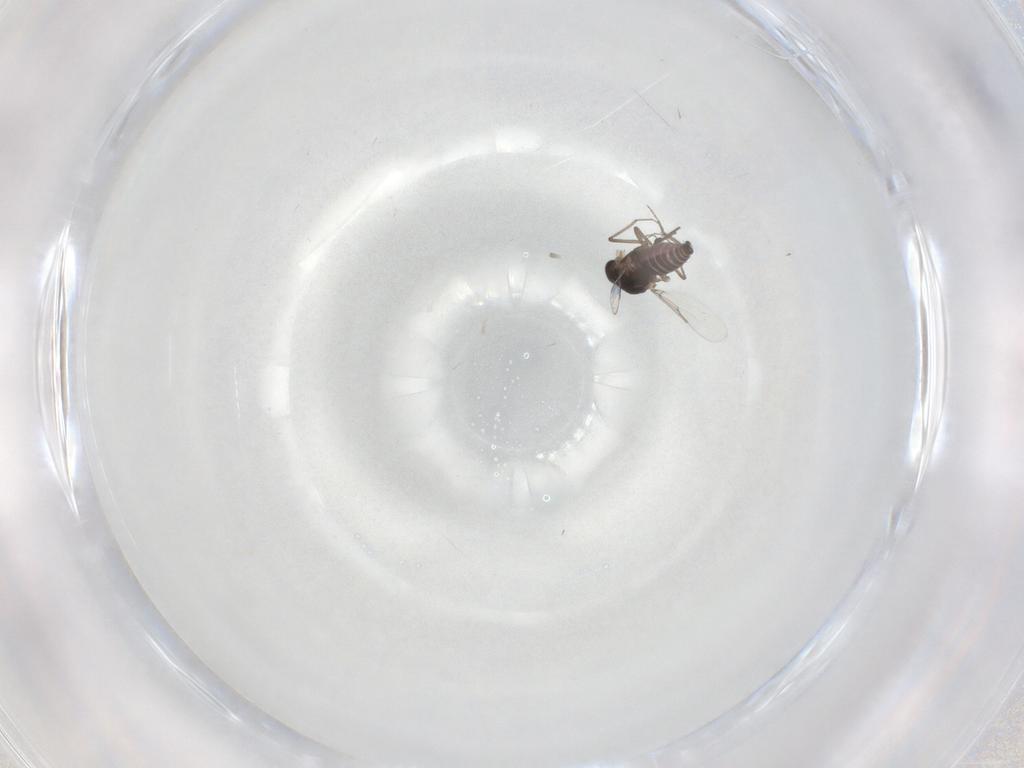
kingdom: Animalia
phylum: Arthropoda
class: Insecta
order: Diptera
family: Ceratopogonidae
